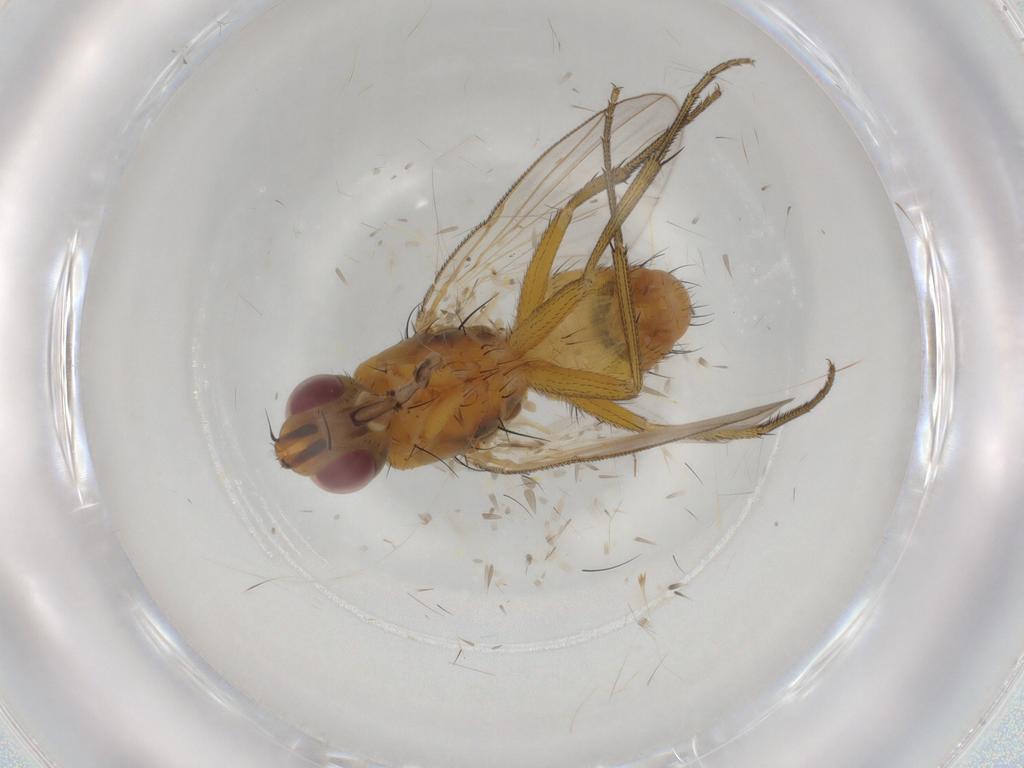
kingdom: Animalia
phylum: Arthropoda
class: Insecta
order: Diptera
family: Muscidae
